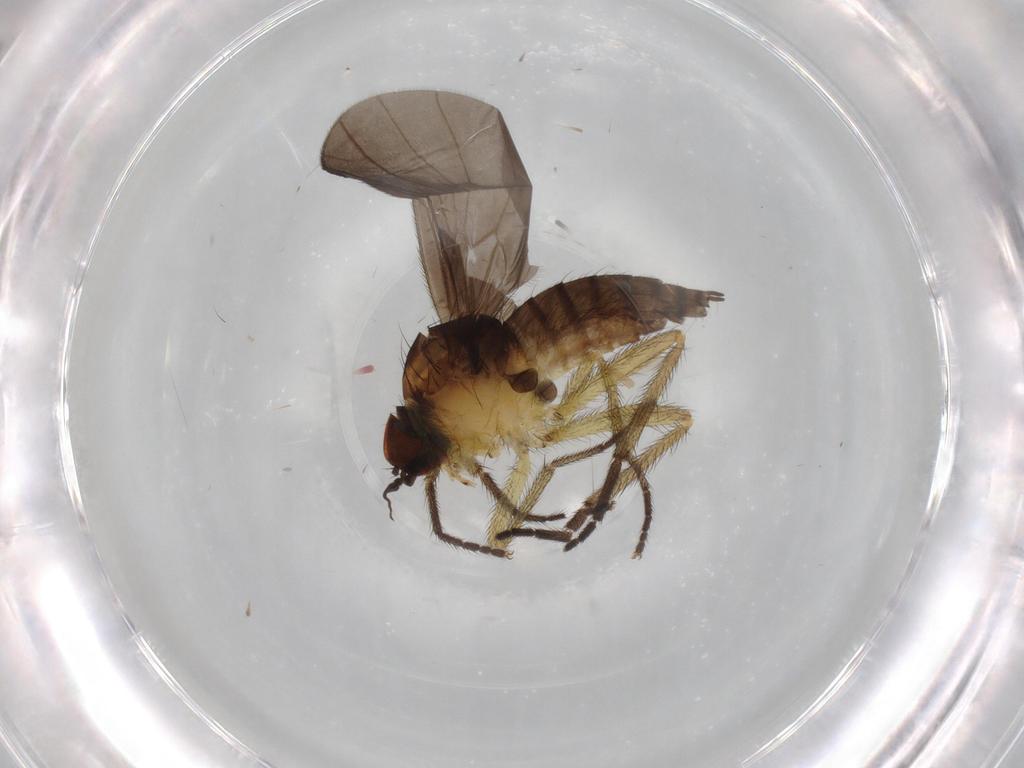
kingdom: Animalia
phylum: Arthropoda
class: Insecta
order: Diptera
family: Empididae
